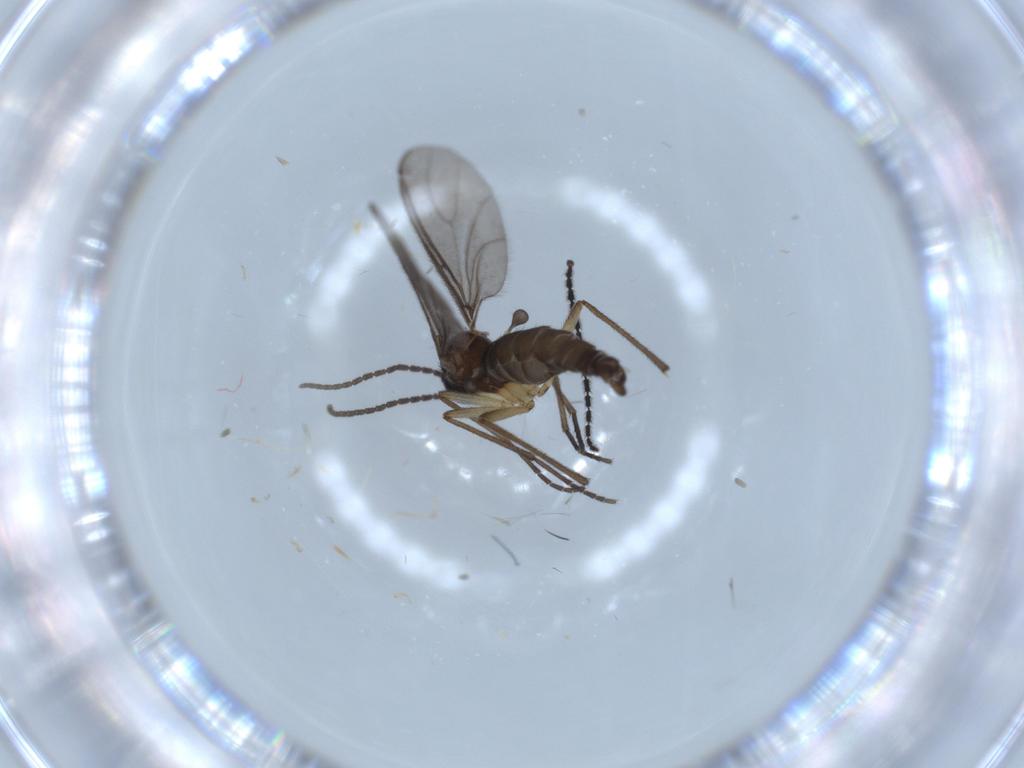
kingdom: Animalia
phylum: Arthropoda
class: Insecta
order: Diptera
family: Sciaridae
